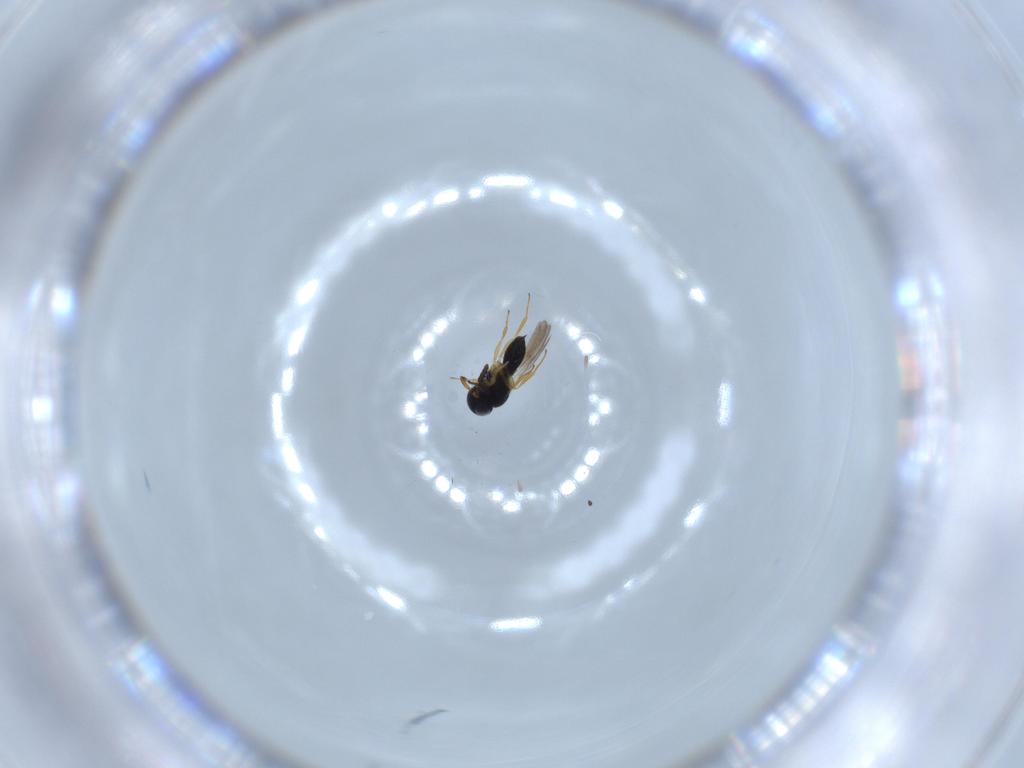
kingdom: Animalia
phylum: Arthropoda
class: Insecta
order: Hymenoptera
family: Scelionidae
